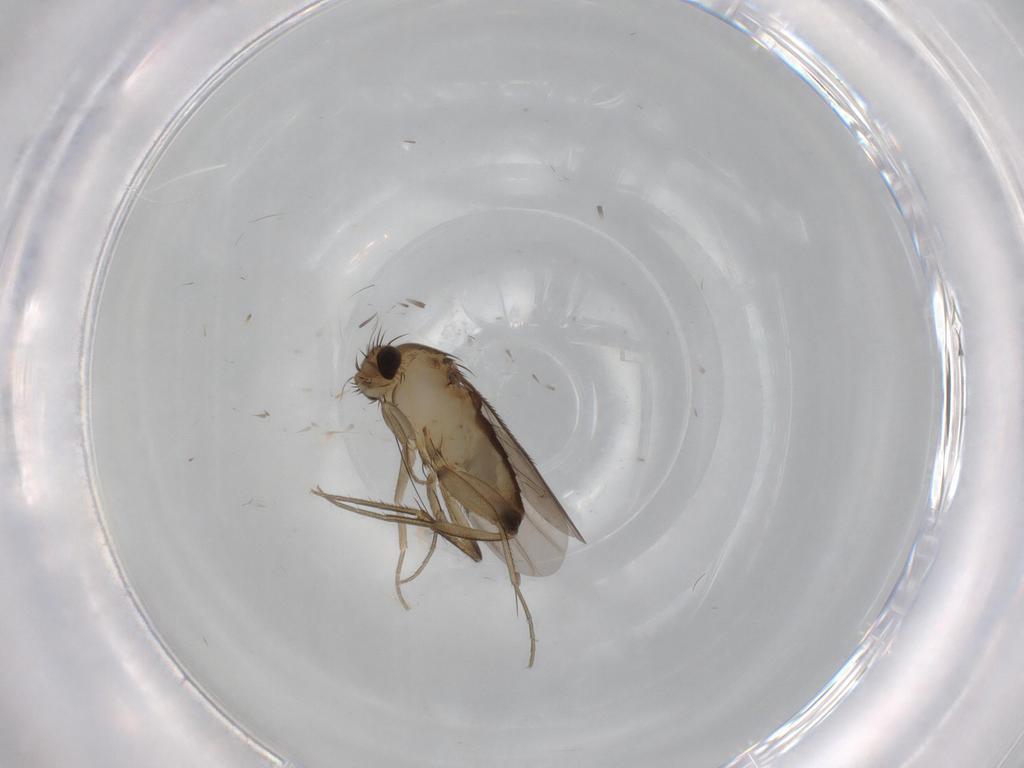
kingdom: Animalia
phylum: Arthropoda
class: Insecta
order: Diptera
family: Phoridae
